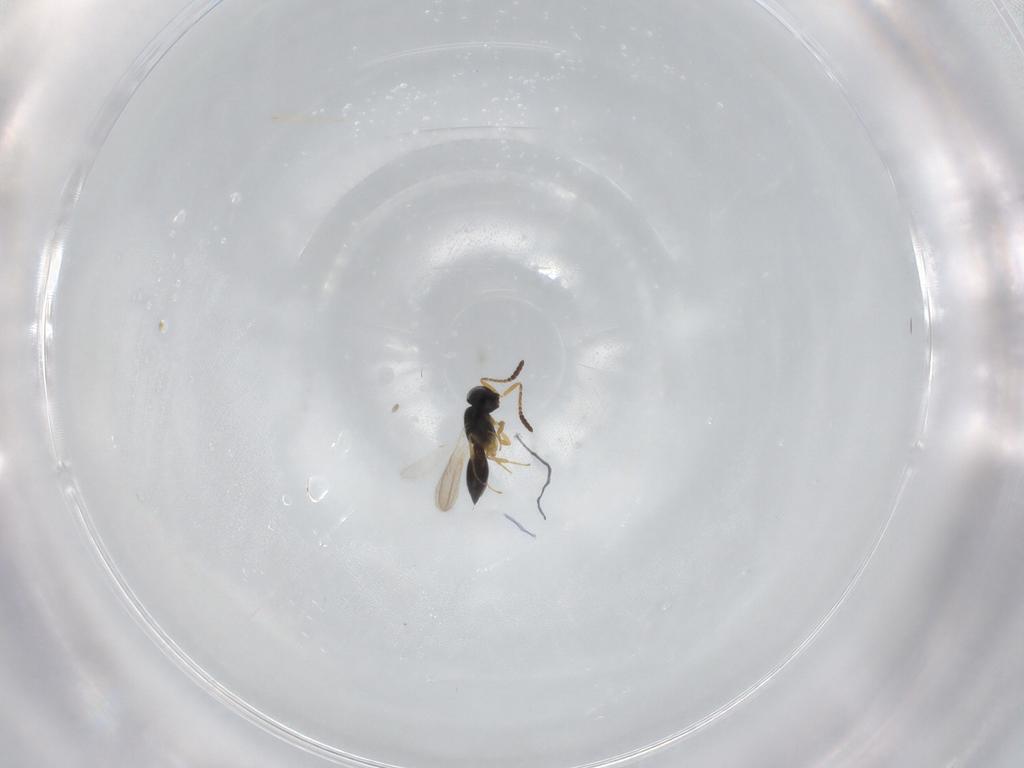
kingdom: Animalia
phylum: Arthropoda
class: Insecta
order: Hymenoptera
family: Scelionidae
